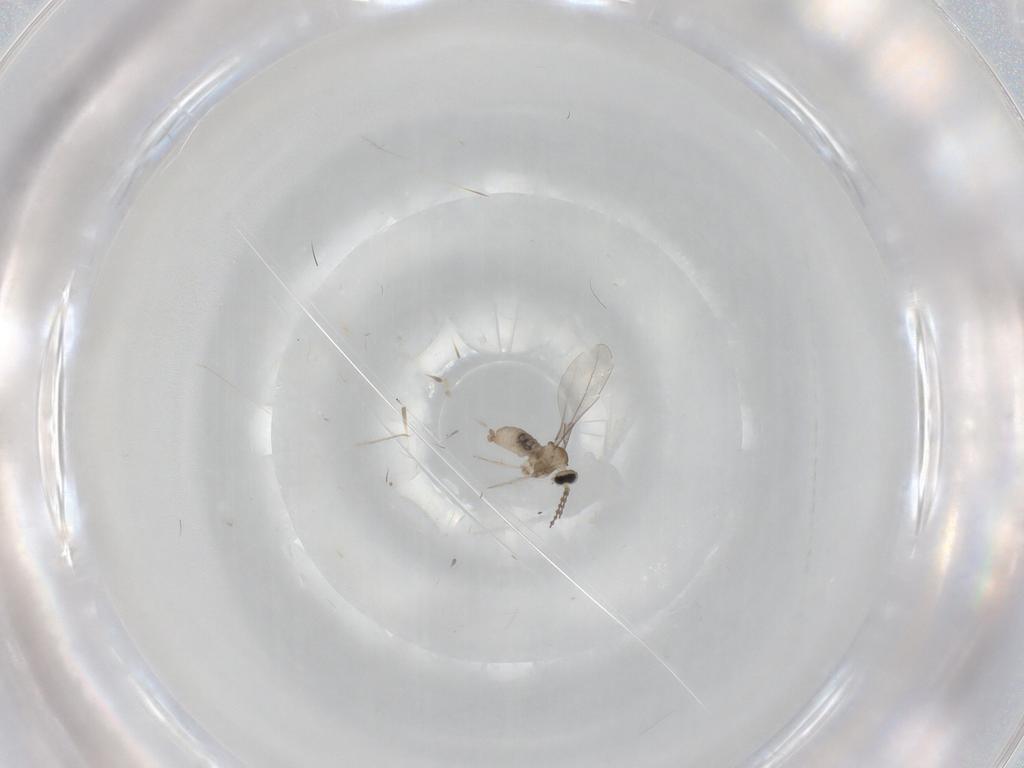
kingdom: Animalia
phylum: Arthropoda
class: Insecta
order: Diptera
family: Cecidomyiidae
